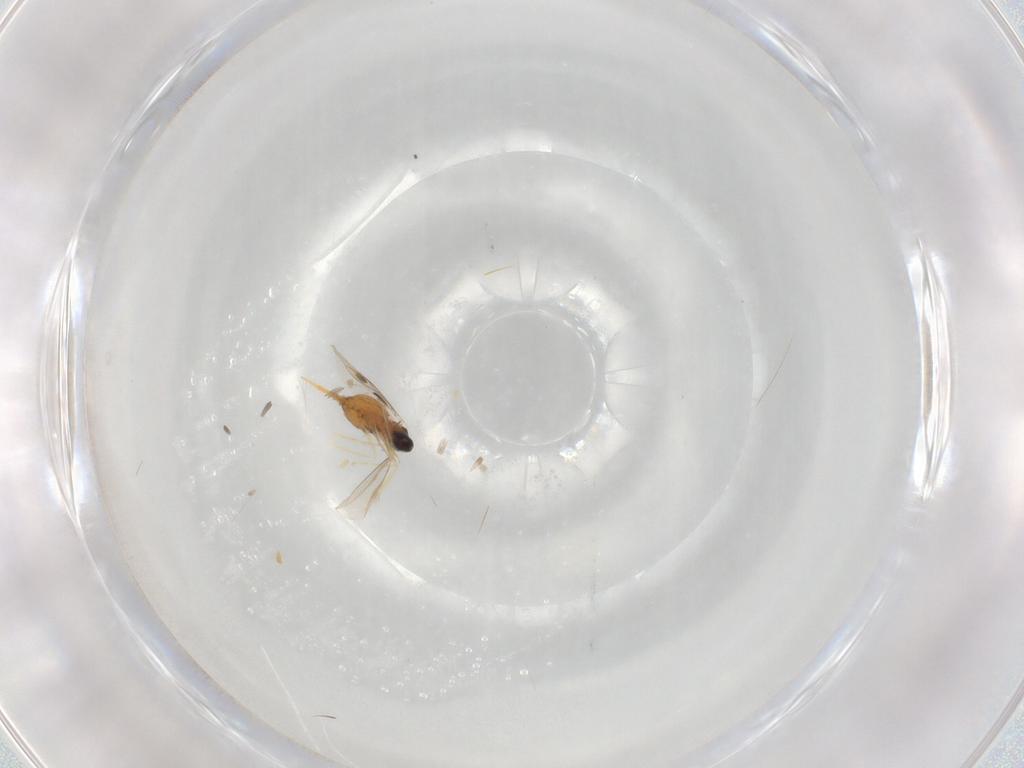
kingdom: Animalia
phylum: Arthropoda
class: Insecta
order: Diptera
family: Cecidomyiidae
